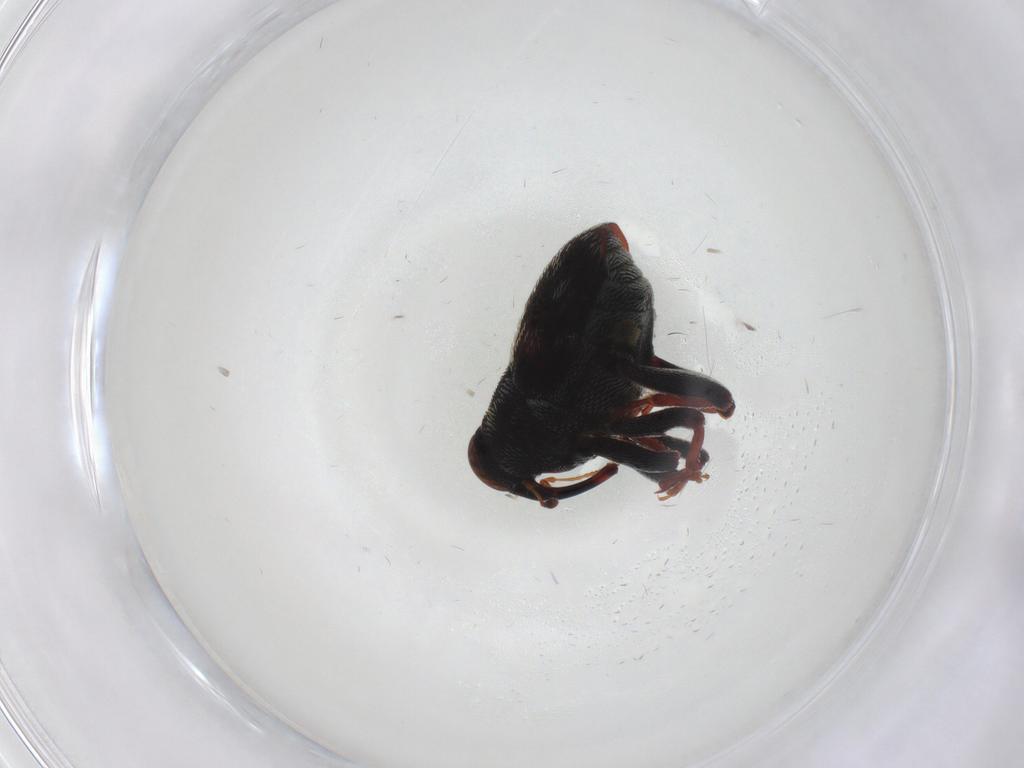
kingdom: Animalia
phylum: Arthropoda
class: Insecta
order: Coleoptera
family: Curculionidae
